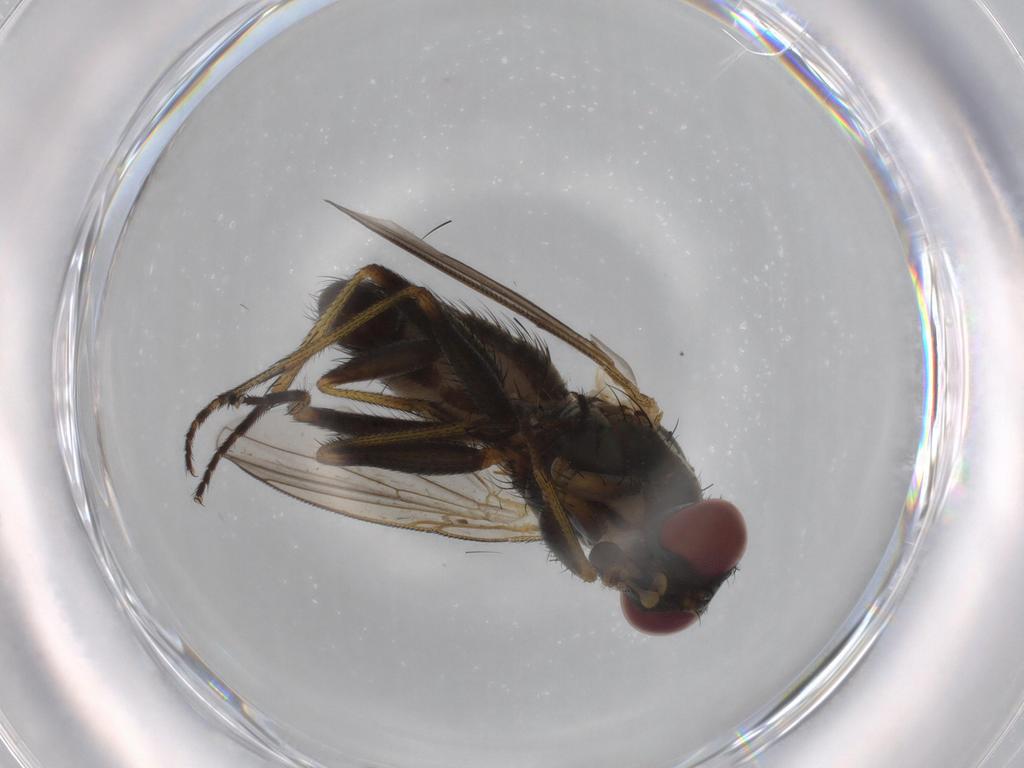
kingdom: Animalia
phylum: Arthropoda
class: Insecta
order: Diptera
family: Muscidae
